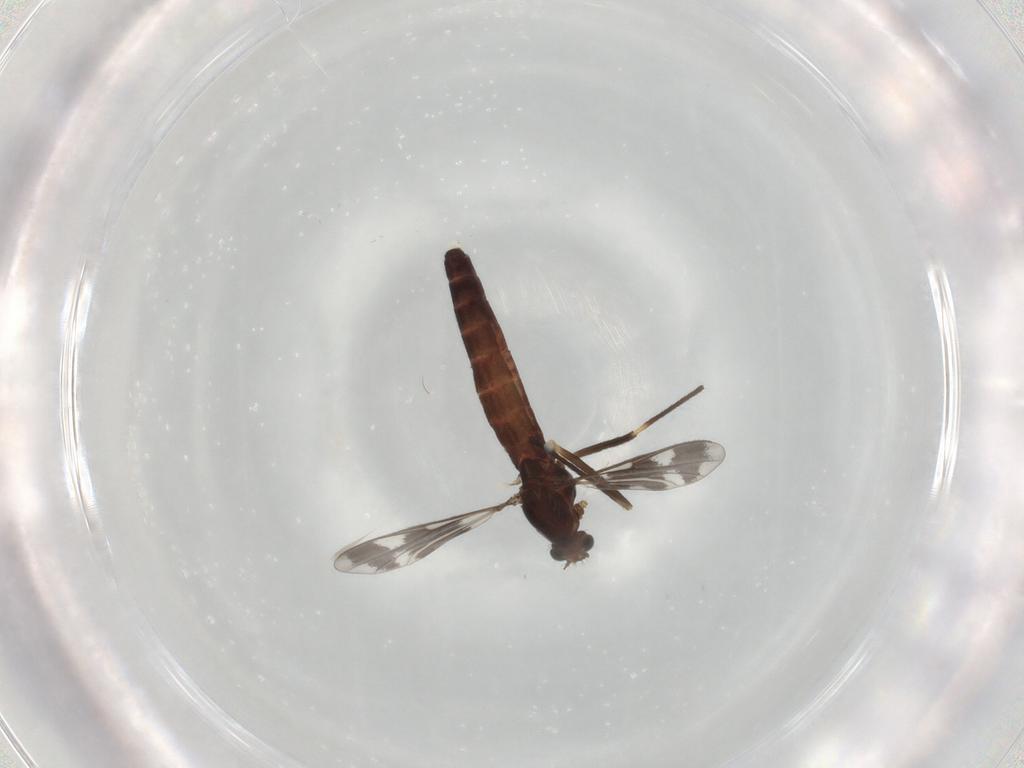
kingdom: Animalia
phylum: Arthropoda
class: Insecta
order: Diptera
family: Chironomidae
